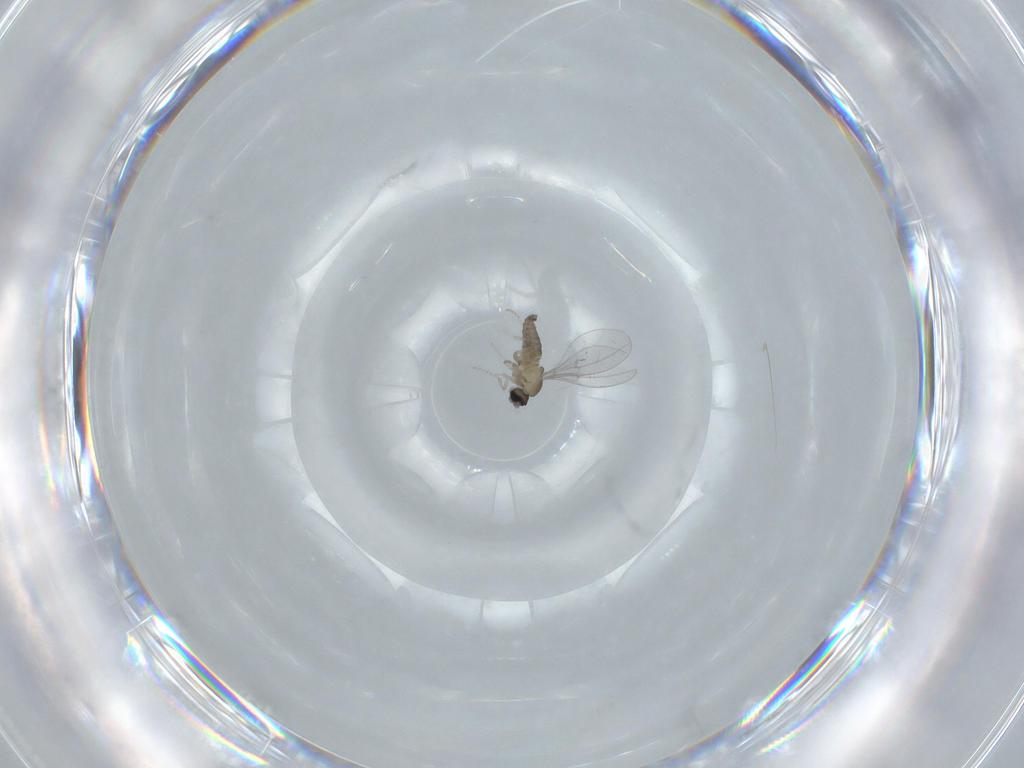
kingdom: Animalia
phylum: Arthropoda
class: Insecta
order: Diptera
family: Cecidomyiidae
